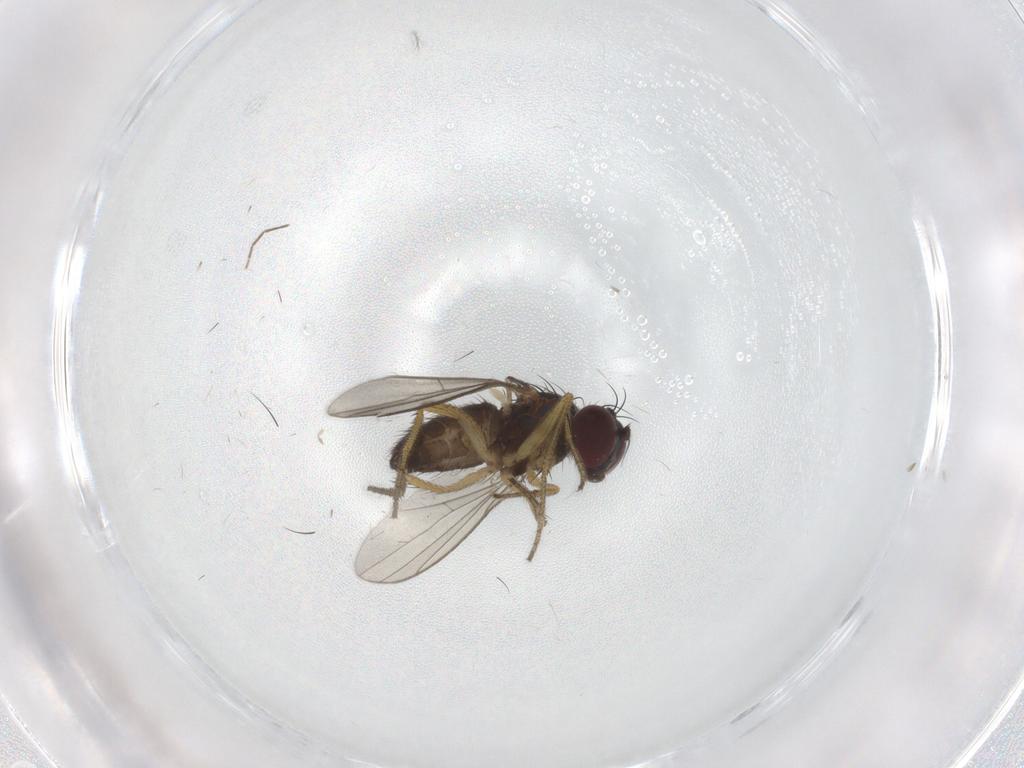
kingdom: Animalia
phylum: Arthropoda
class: Insecta
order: Diptera
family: Dolichopodidae
